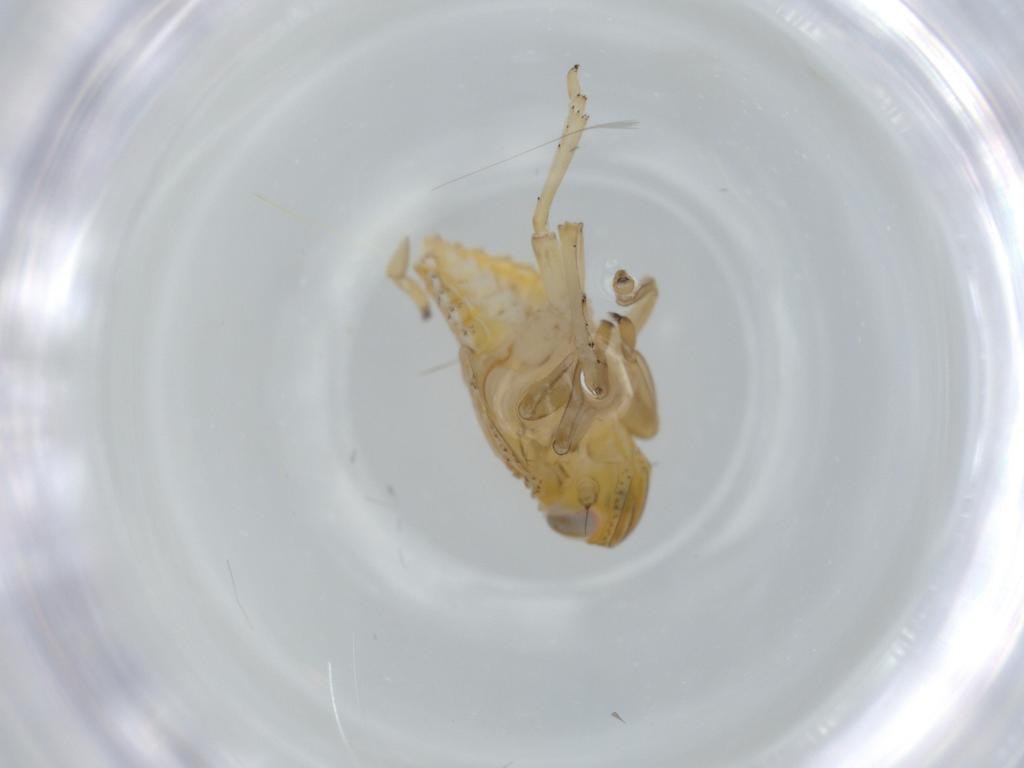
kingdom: Animalia
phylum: Arthropoda
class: Insecta
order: Hemiptera
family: Issidae
